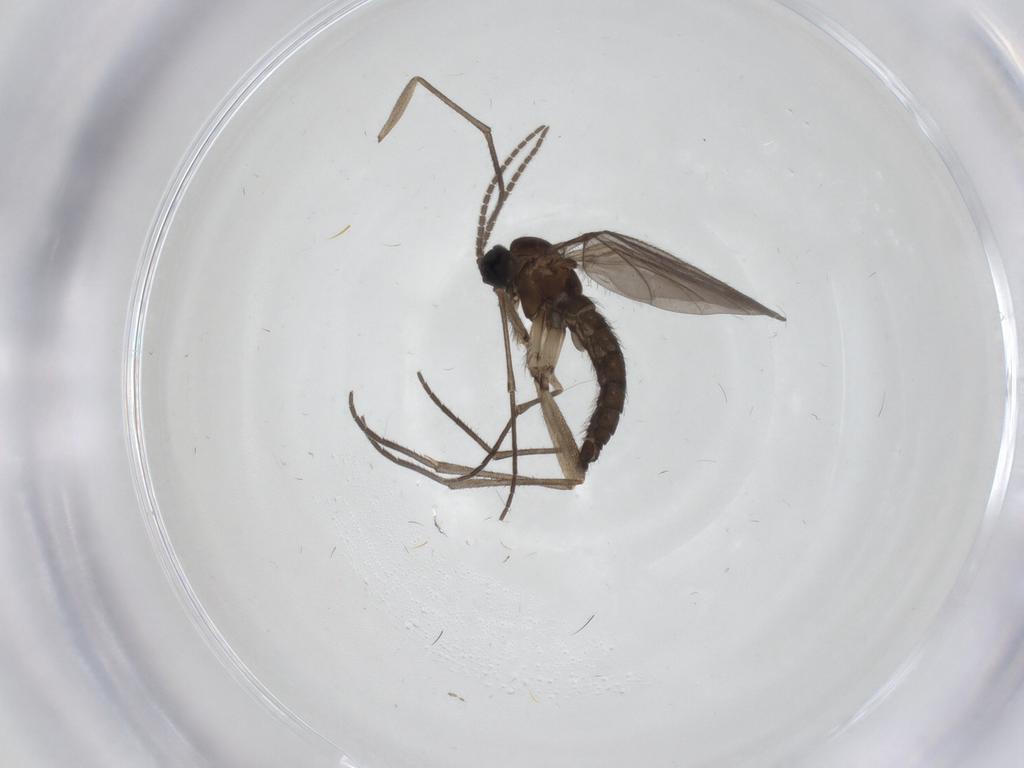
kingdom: Animalia
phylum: Arthropoda
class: Insecta
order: Diptera
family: Sciaridae
